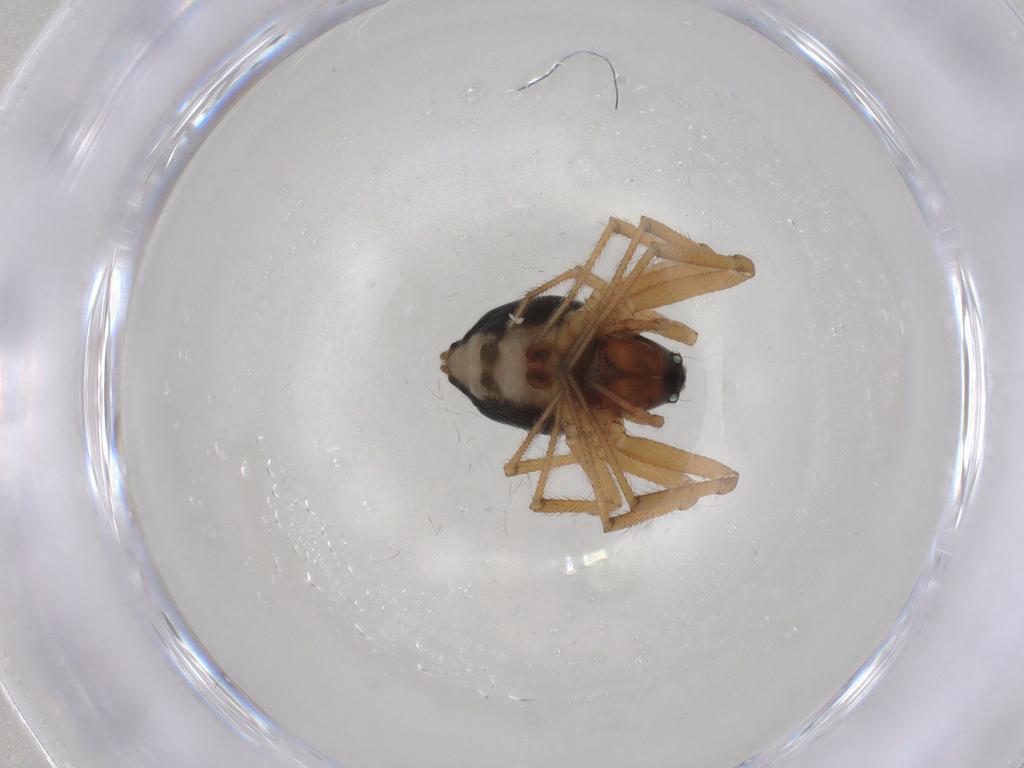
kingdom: Animalia
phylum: Arthropoda
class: Arachnida
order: Araneae
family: Linyphiidae
